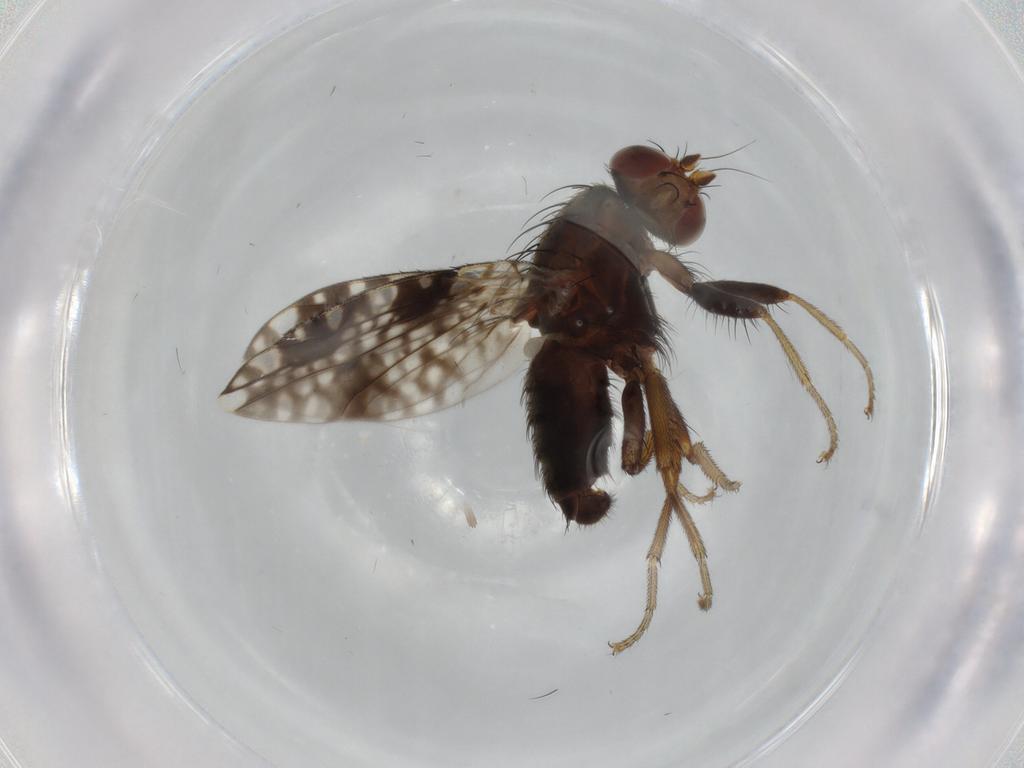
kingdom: Animalia
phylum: Arthropoda
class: Insecta
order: Diptera
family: Tephritidae
